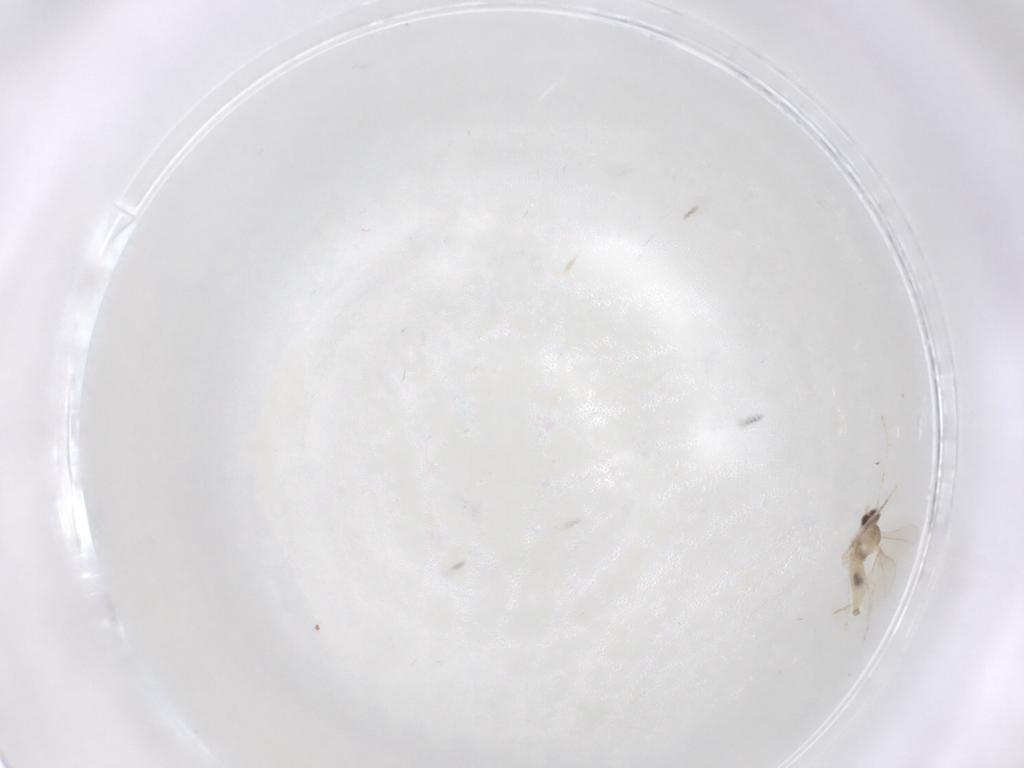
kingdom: Animalia
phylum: Arthropoda
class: Insecta
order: Diptera
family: Cecidomyiidae
